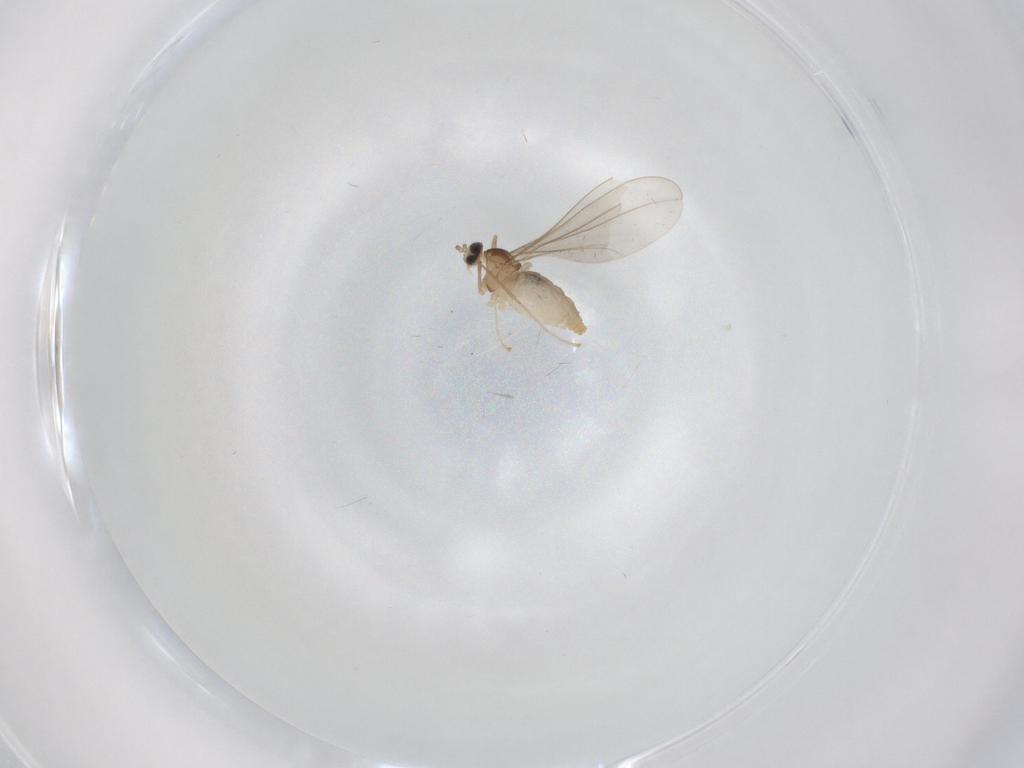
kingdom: Animalia
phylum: Arthropoda
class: Insecta
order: Diptera
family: Cecidomyiidae
